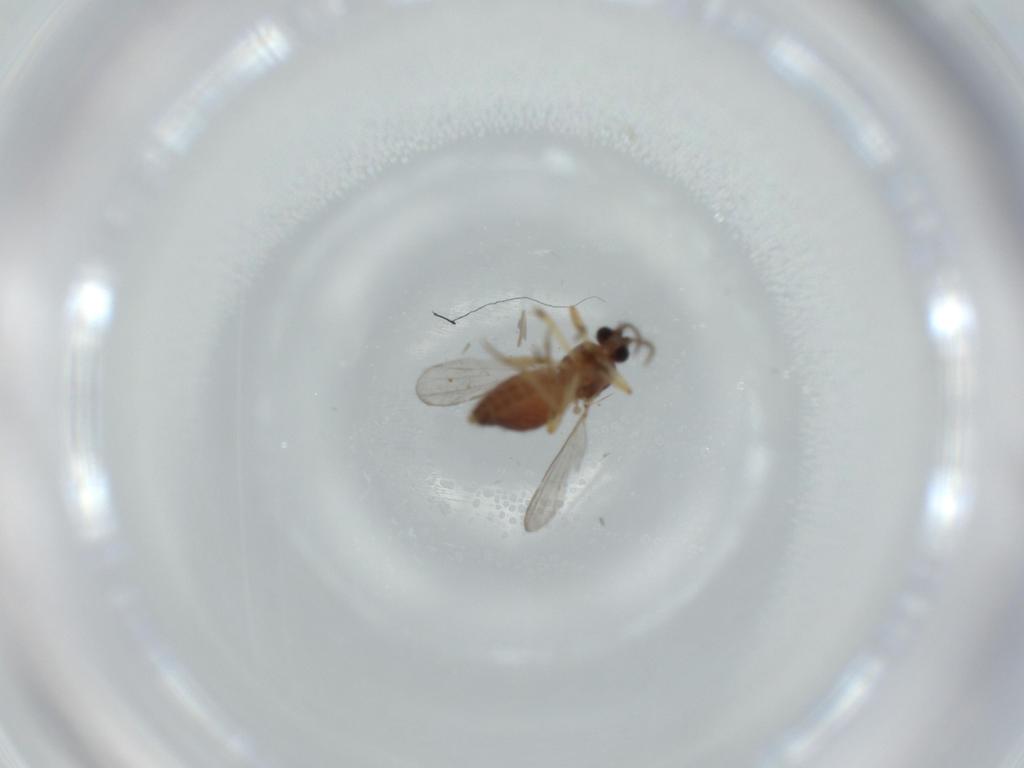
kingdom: Animalia
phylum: Arthropoda
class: Insecta
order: Diptera
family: Ceratopogonidae
